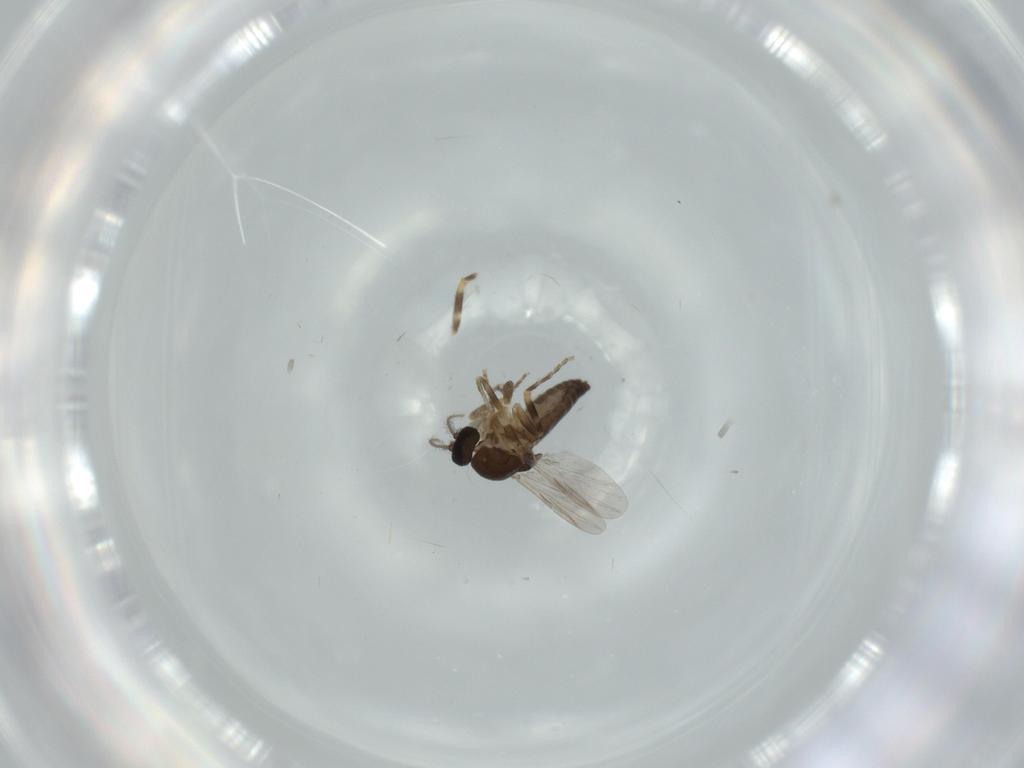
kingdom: Animalia
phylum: Arthropoda
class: Insecta
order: Diptera
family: Chironomidae
